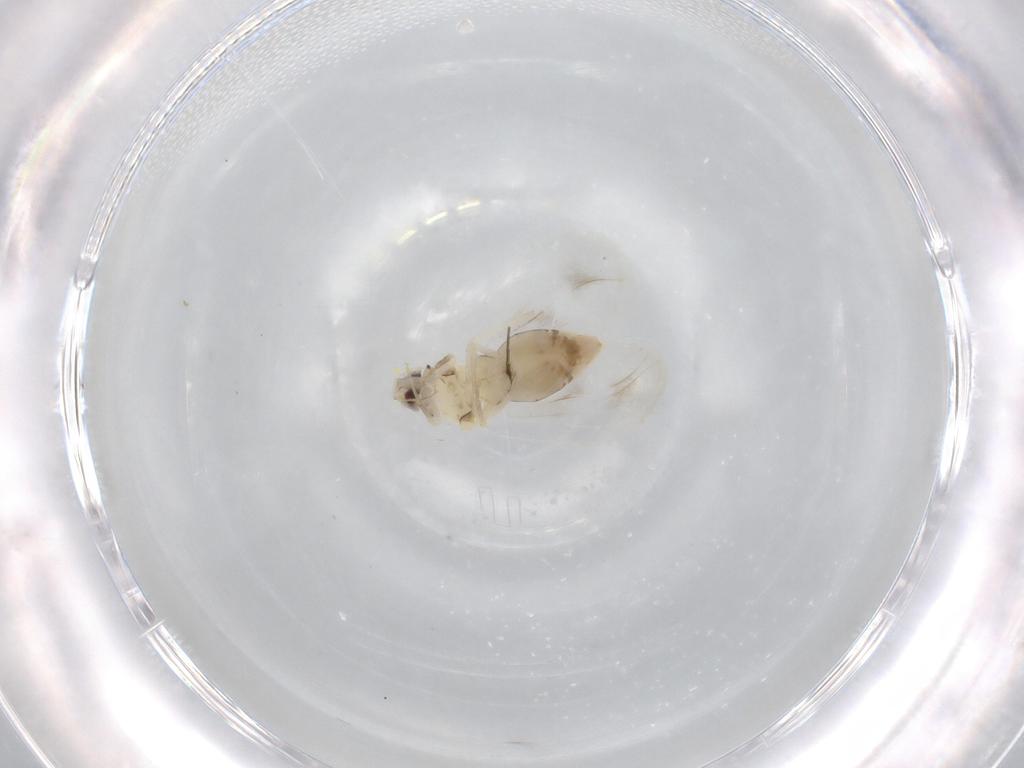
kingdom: Animalia
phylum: Arthropoda
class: Insecta
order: Hemiptera
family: Aleyrodidae
